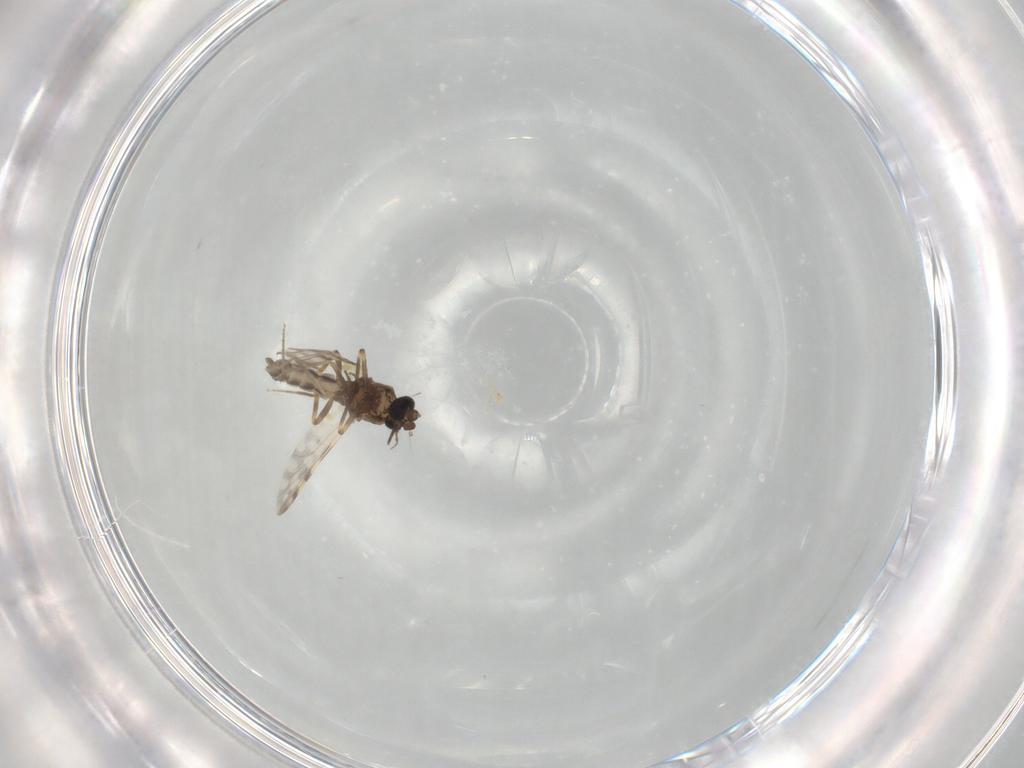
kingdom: Animalia
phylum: Arthropoda
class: Insecta
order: Diptera
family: Ceratopogonidae
